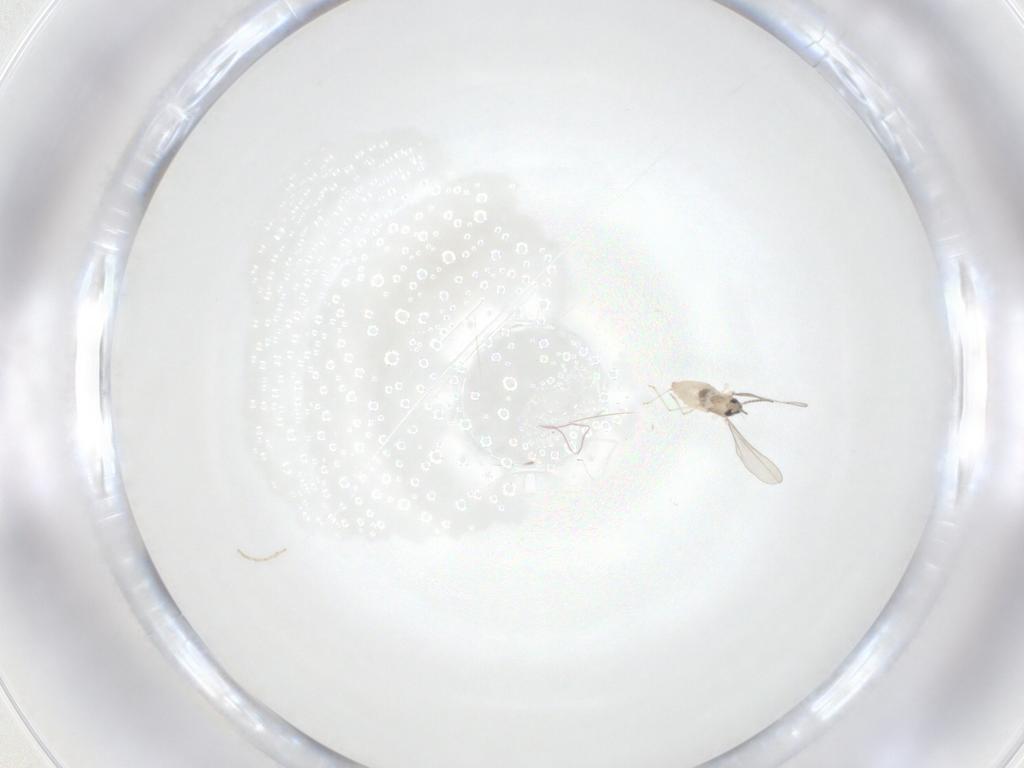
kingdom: Animalia
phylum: Arthropoda
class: Insecta
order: Diptera
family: Cecidomyiidae
